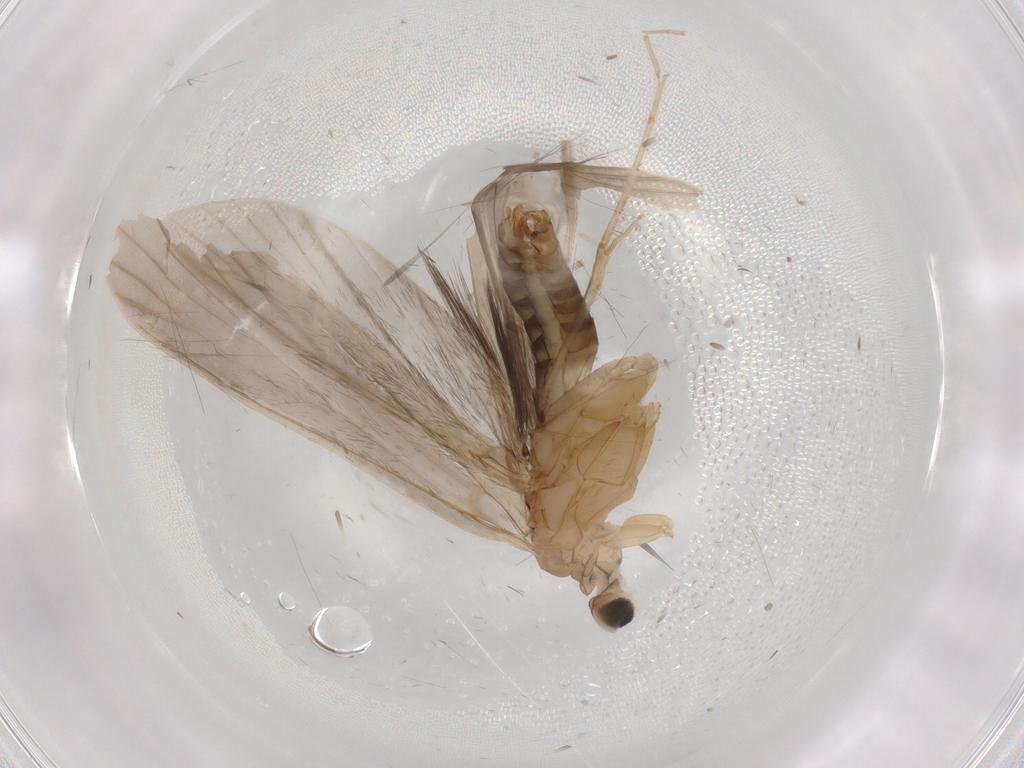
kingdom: Animalia
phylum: Arthropoda
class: Insecta
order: Trichoptera
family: Leptoceridae
